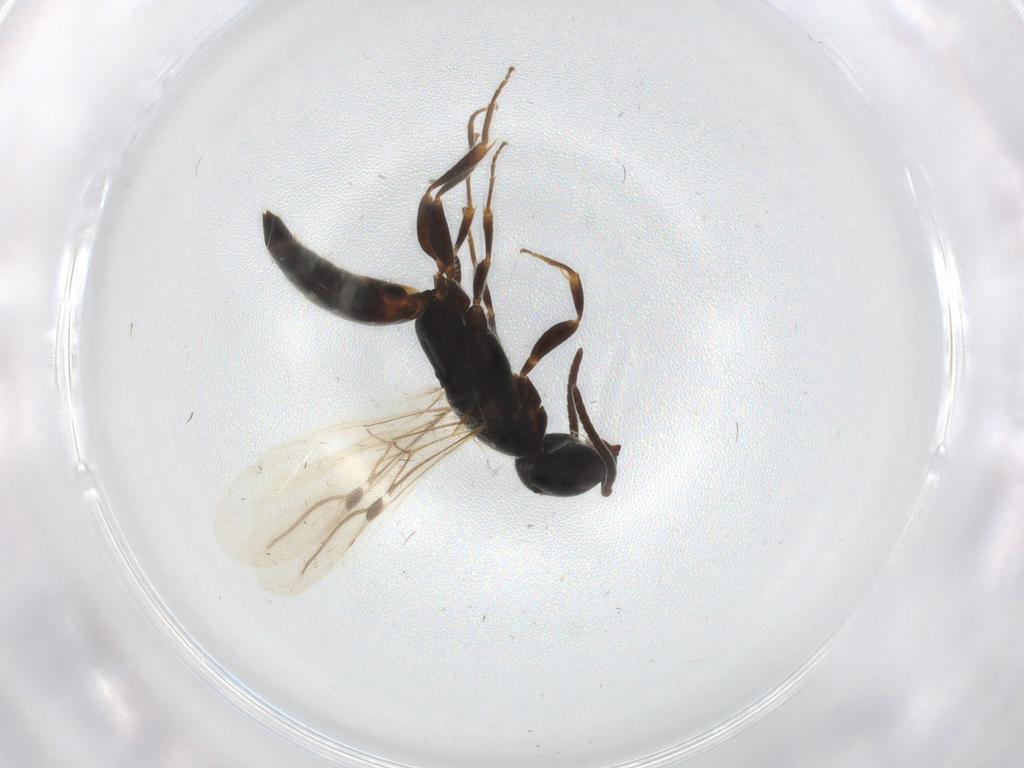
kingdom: Animalia
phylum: Arthropoda
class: Insecta
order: Hymenoptera
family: Bethylidae
